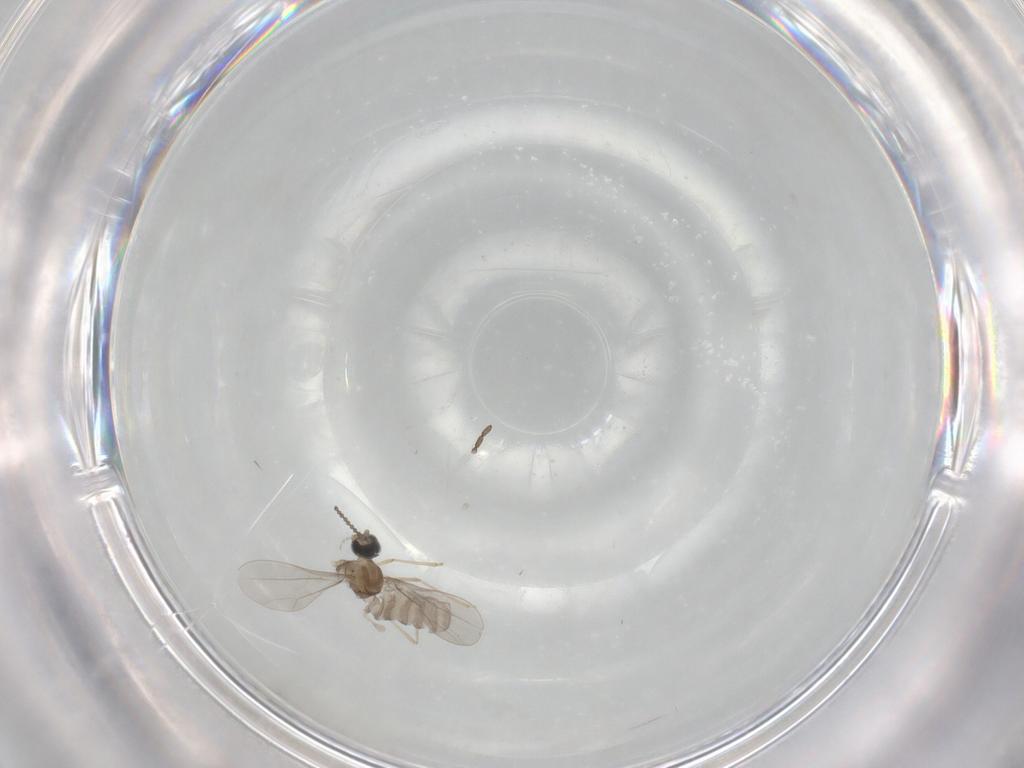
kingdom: Animalia
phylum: Arthropoda
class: Insecta
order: Diptera
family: Cecidomyiidae
